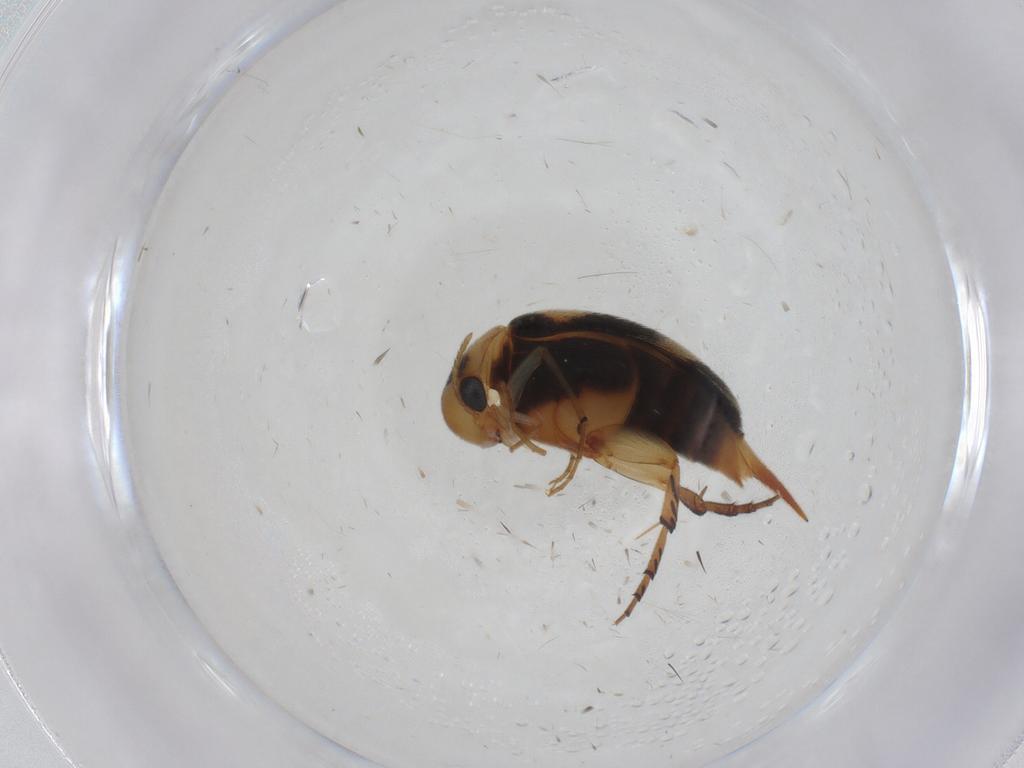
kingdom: Animalia
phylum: Arthropoda
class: Insecta
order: Coleoptera
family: Mordellidae
